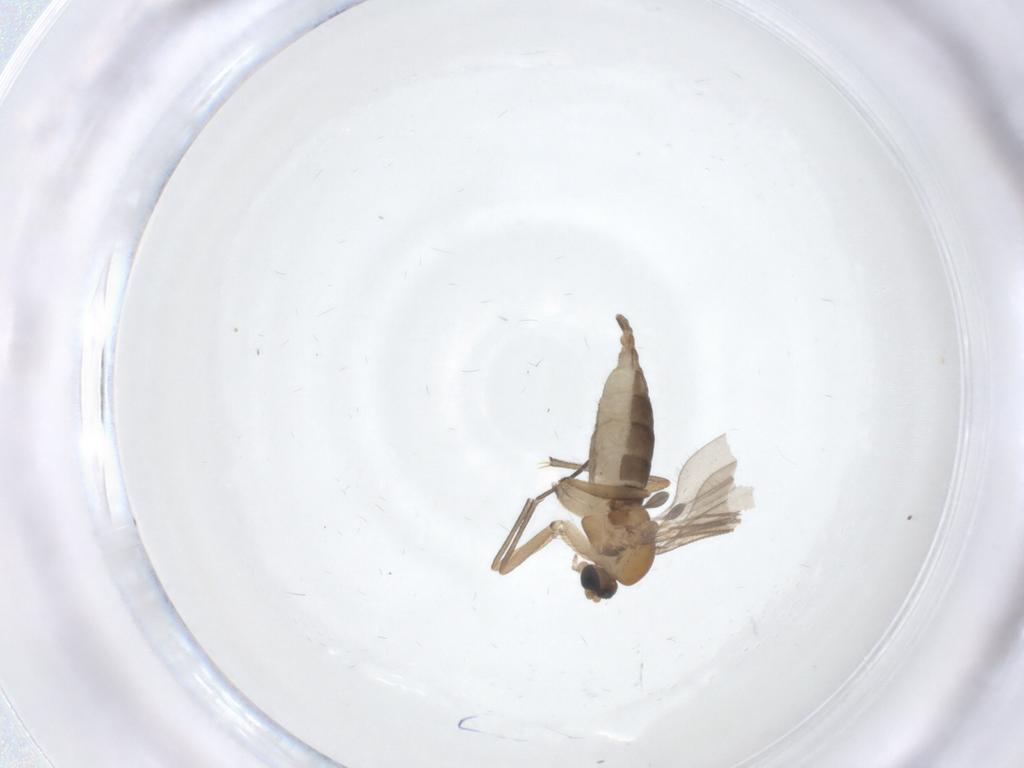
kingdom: Animalia
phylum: Arthropoda
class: Insecta
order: Diptera
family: Sciaridae
